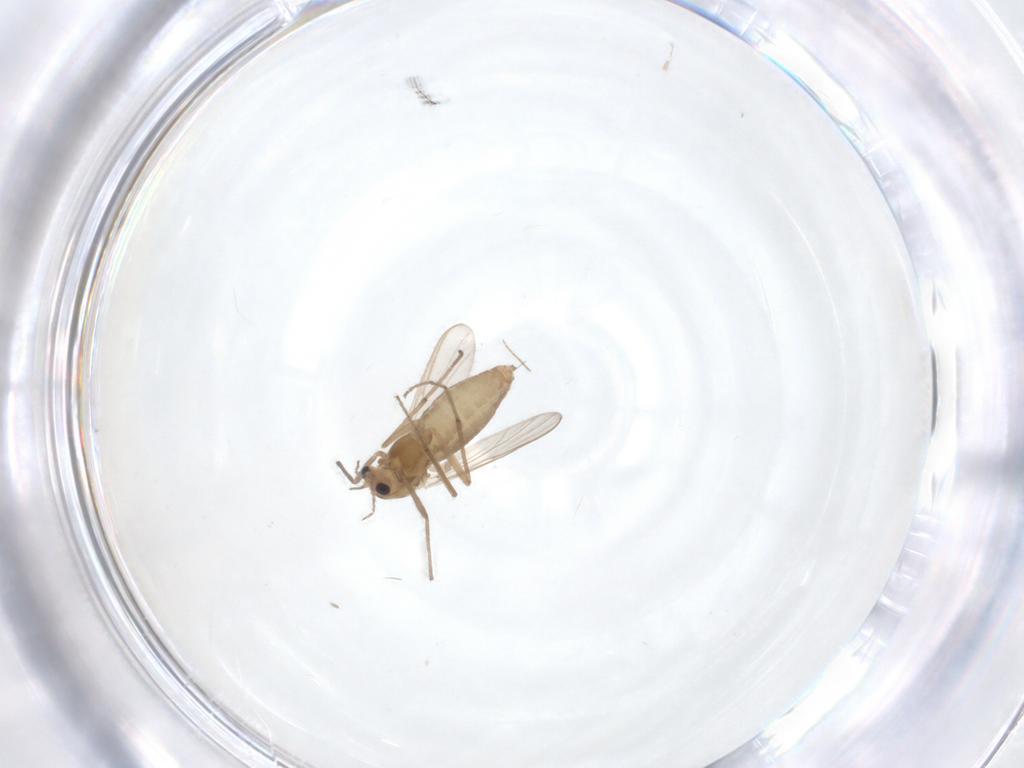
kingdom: Animalia
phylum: Arthropoda
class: Insecta
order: Diptera
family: Chironomidae
